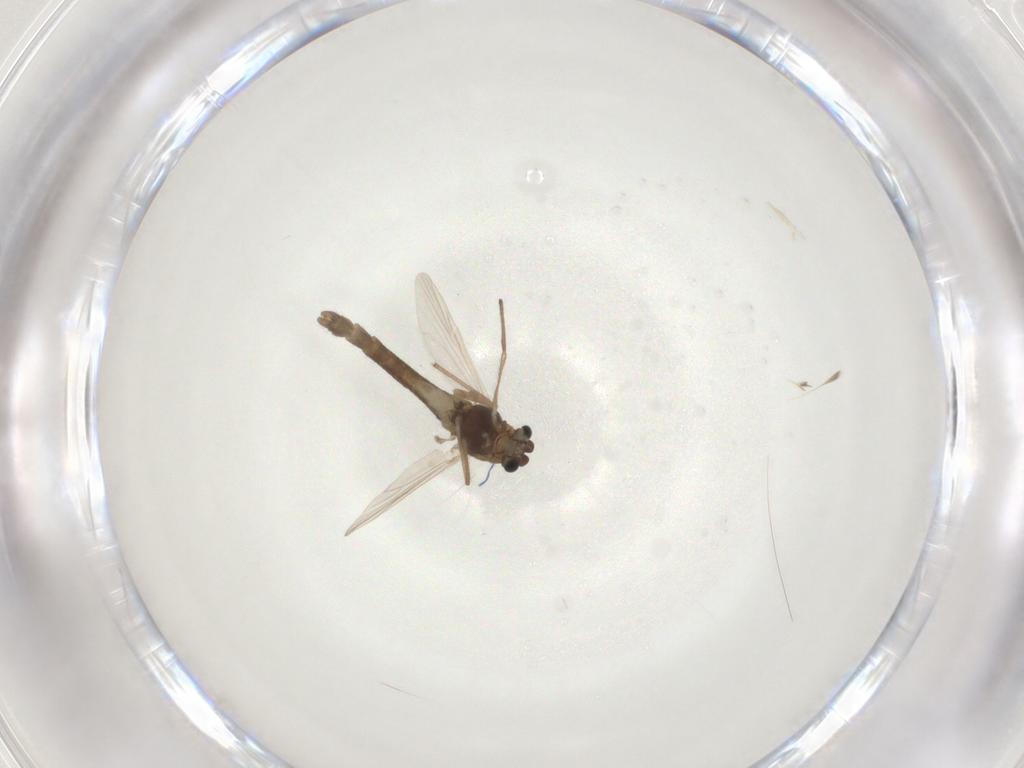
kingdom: Animalia
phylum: Arthropoda
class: Insecta
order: Diptera
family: Chironomidae
